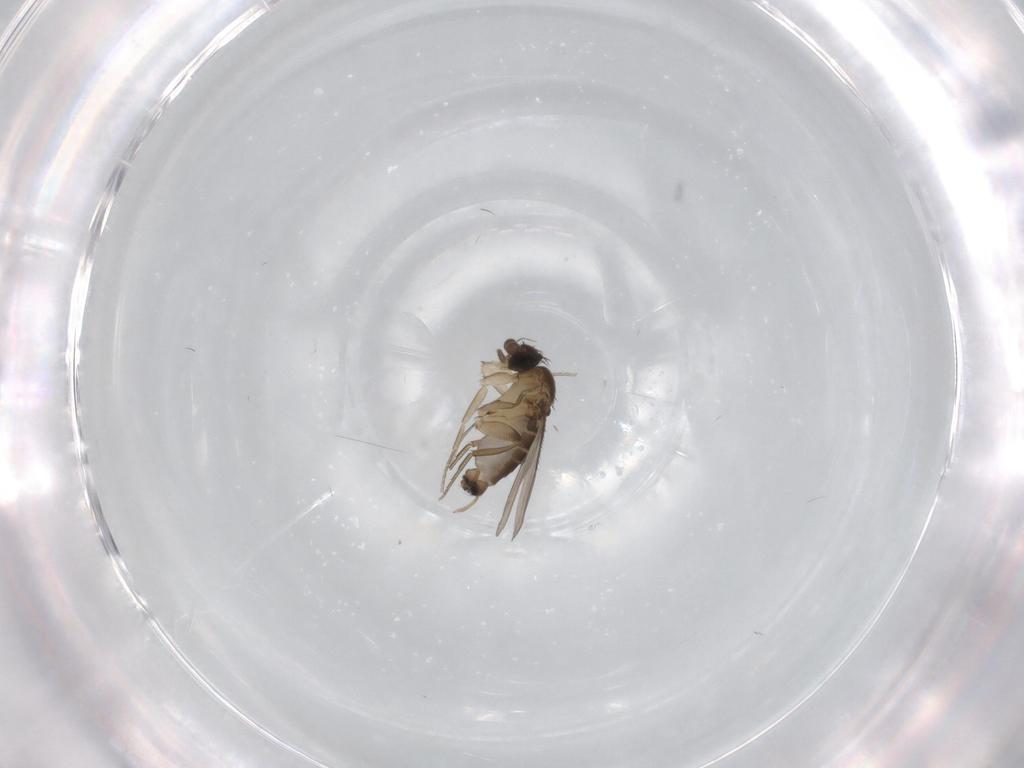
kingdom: Animalia
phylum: Arthropoda
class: Insecta
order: Diptera
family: Phoridae
